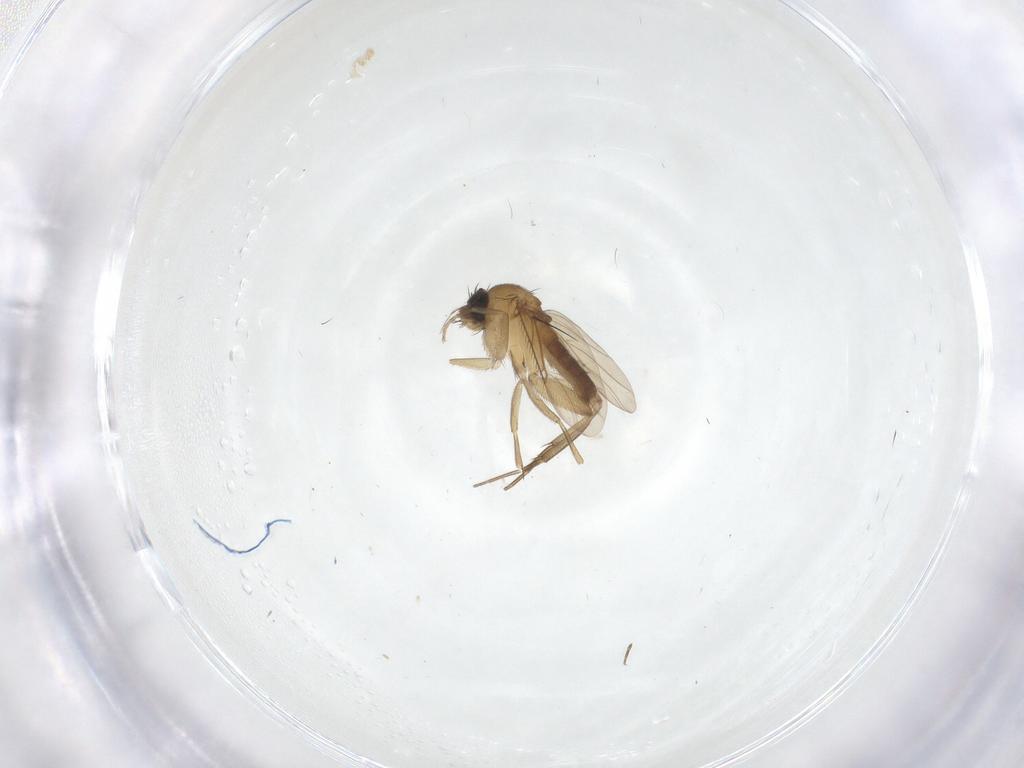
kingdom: Animalia
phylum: Arthropoda
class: Insecta
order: Diptera
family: Phoridae
